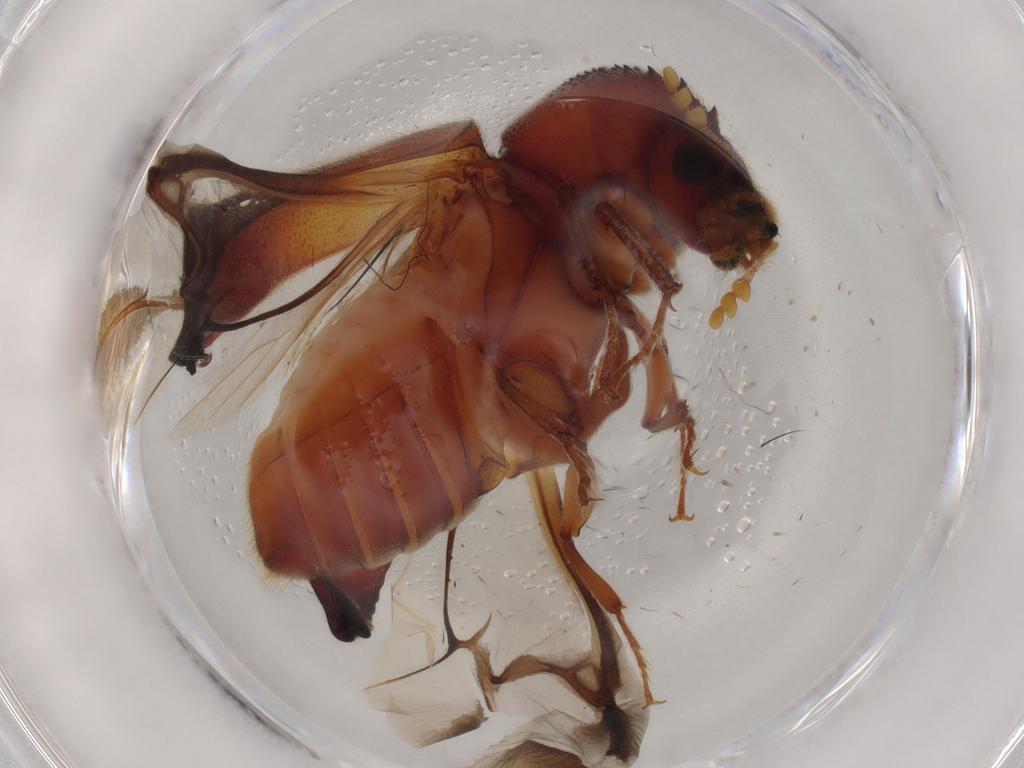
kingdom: Animalia
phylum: Arthropoda
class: Insecta
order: Coleoptera
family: Bostrichidae
